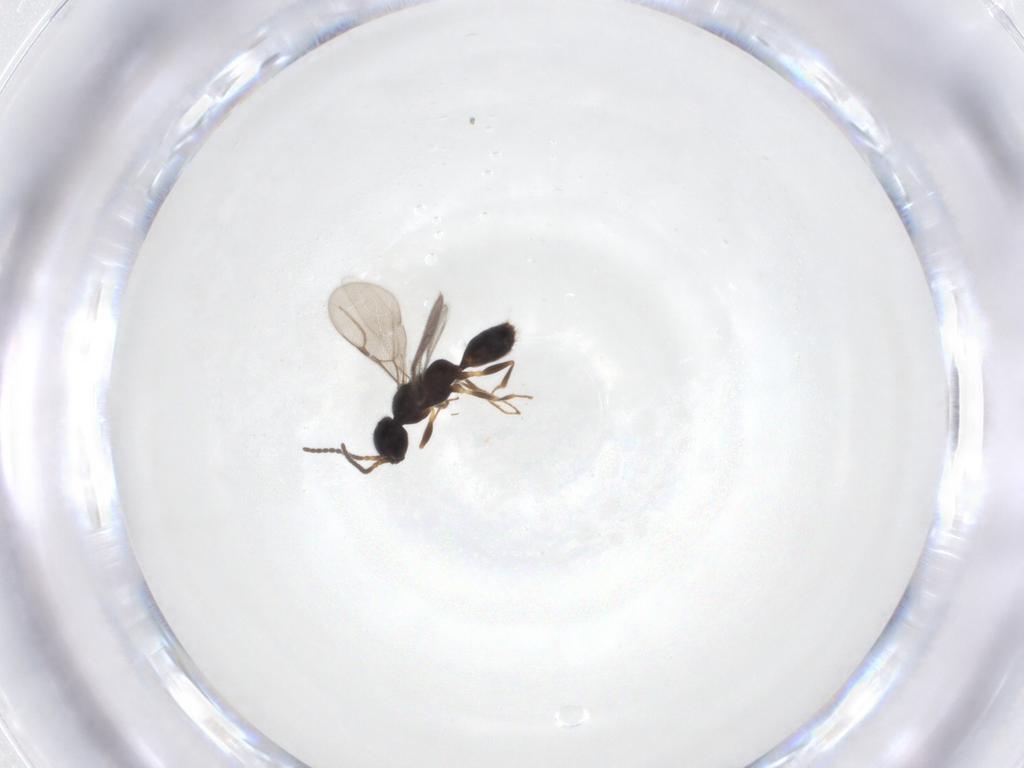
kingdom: Animalia
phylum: Arthropoda
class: Insecta
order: Hymenoptera
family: Bethylidae
